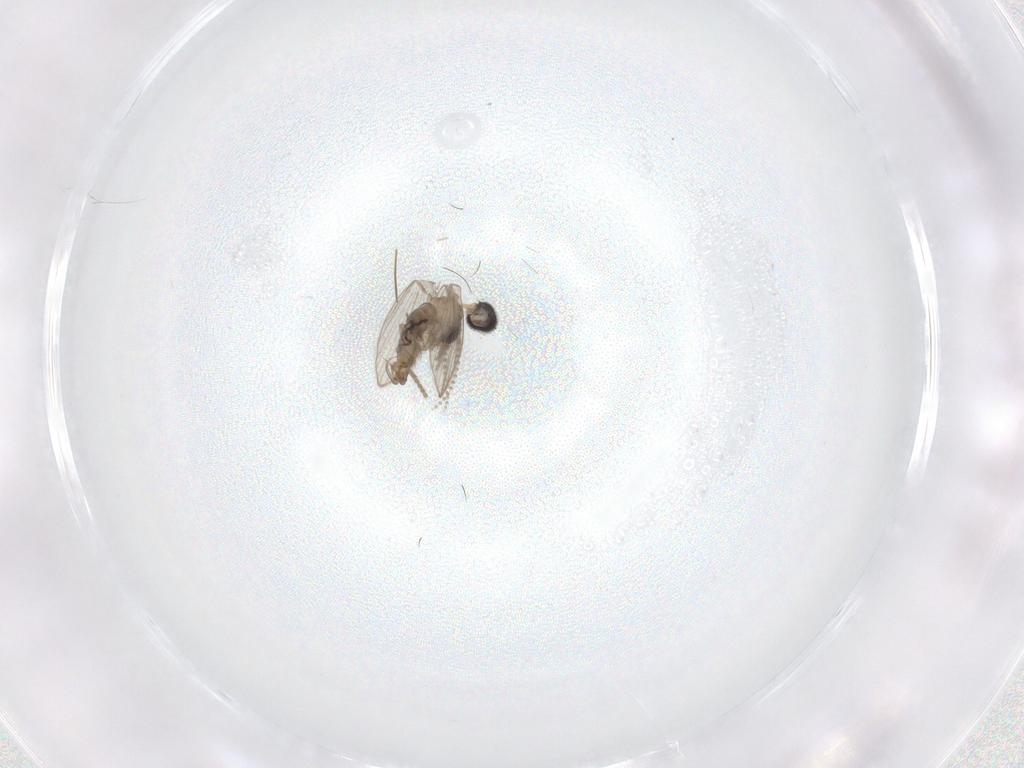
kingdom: Animalia
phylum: Arthropoda
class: Insecta
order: Diptera
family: Psychodidae
